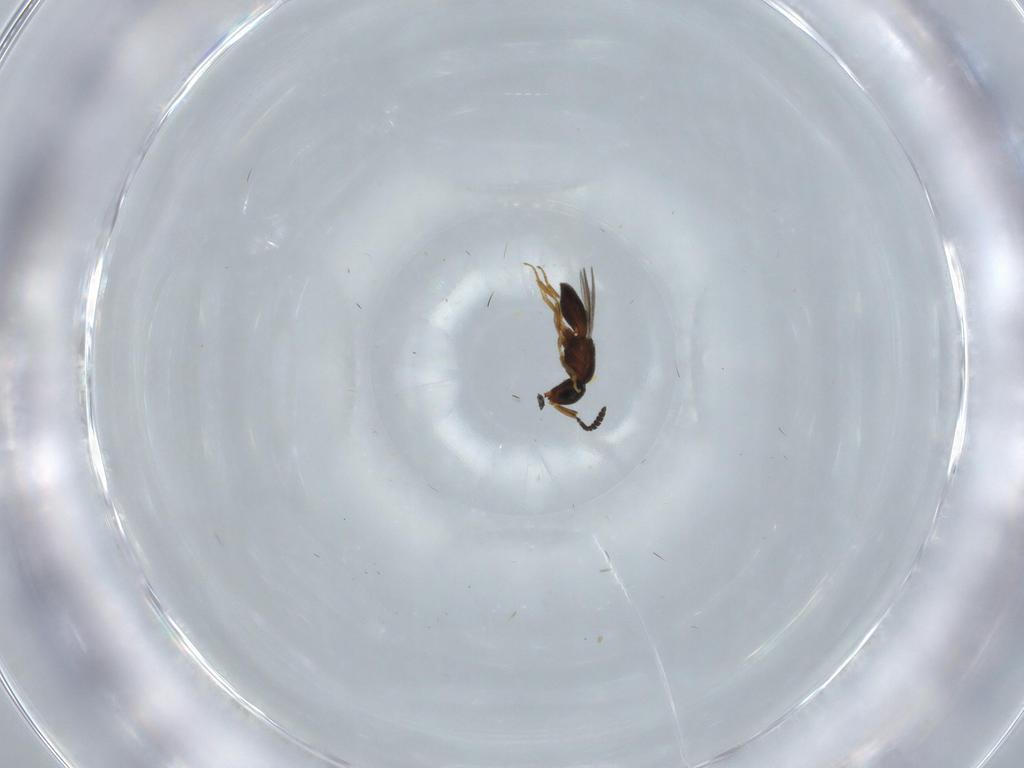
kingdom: Animalia
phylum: Arthropoda
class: Insecta
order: Hymenoptera
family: Scelionidae
